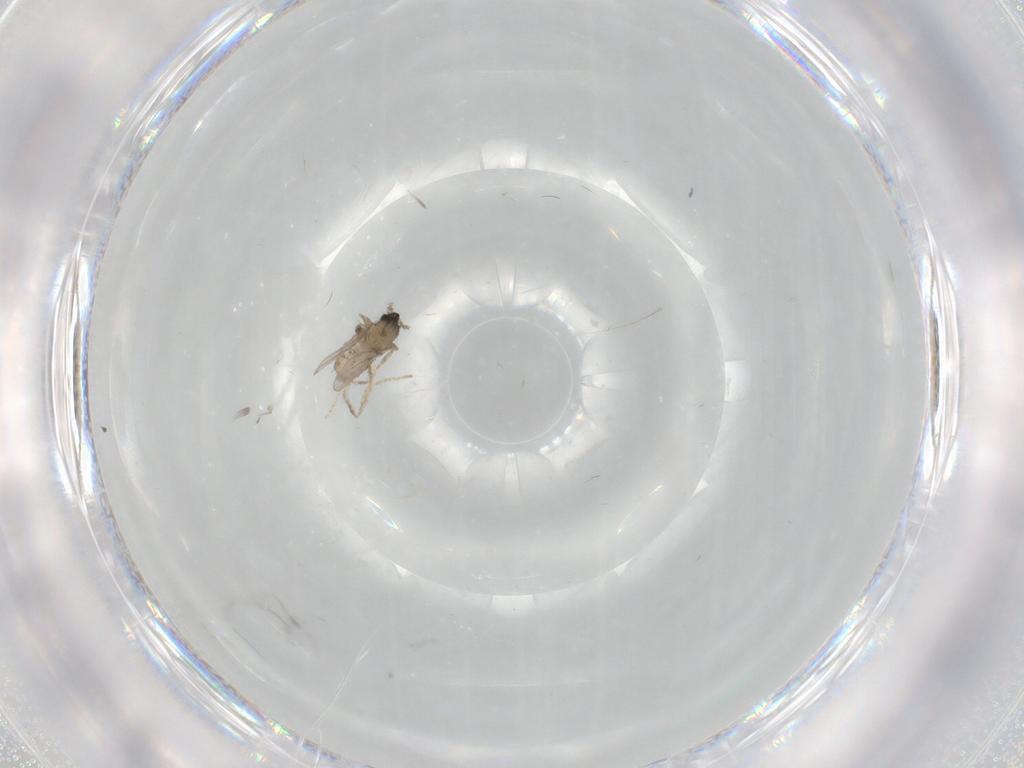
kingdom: Animalia
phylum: Arthropoda
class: Insecta
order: Diptera
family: Cecidomyiidae
